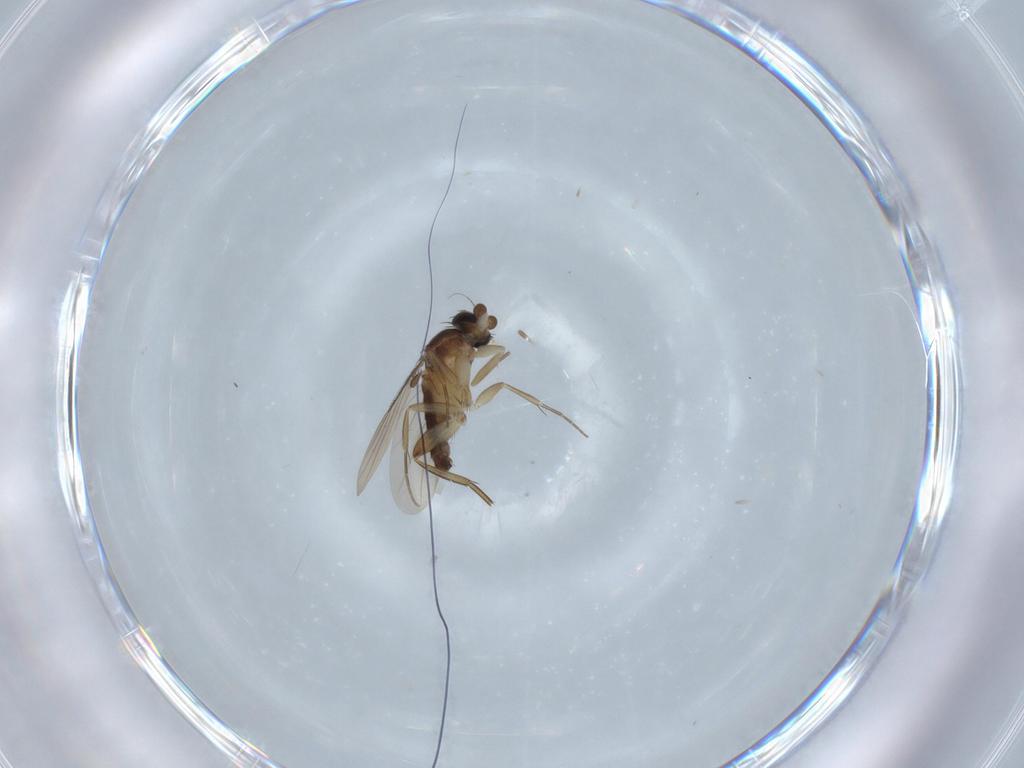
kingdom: Animalia
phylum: Arthropoda
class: Insecta
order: Diptera
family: Phoridae
